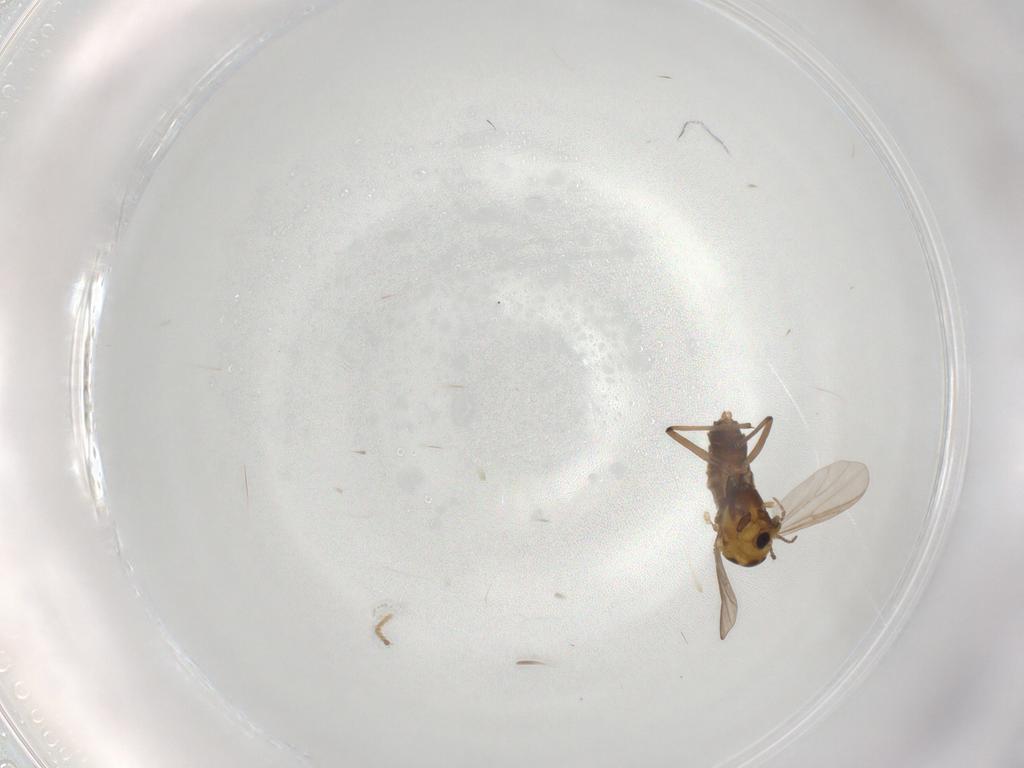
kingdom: Animalia
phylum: Arthropoda
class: Insecta
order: Diptera
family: Chironomidae
